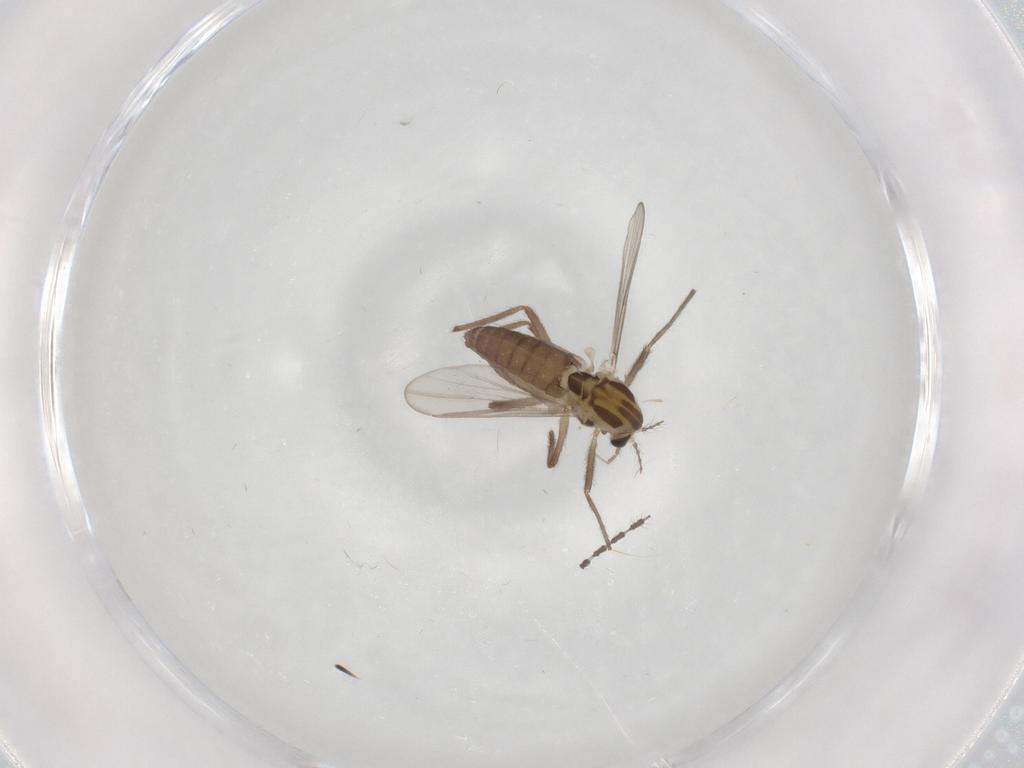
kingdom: Animalia
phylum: Arthropoda
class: Insecta
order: Diptera
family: Chironomidae
